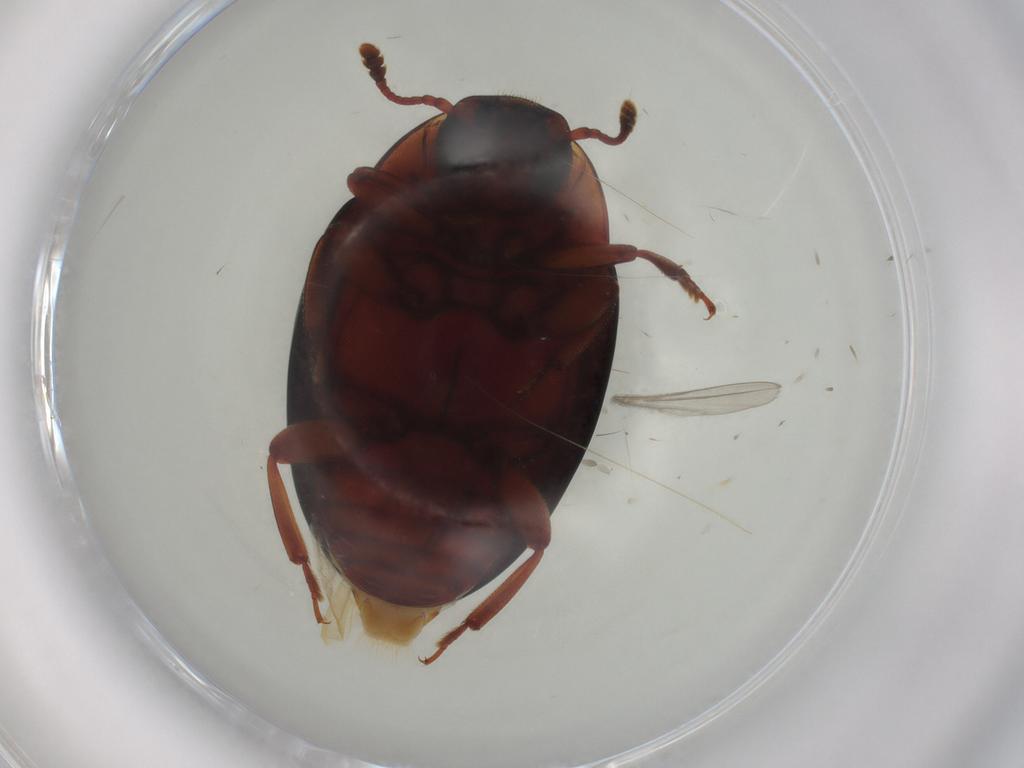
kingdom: Animalia
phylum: Arthropoda
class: Insecta
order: Coleoptera
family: Zopheridae
